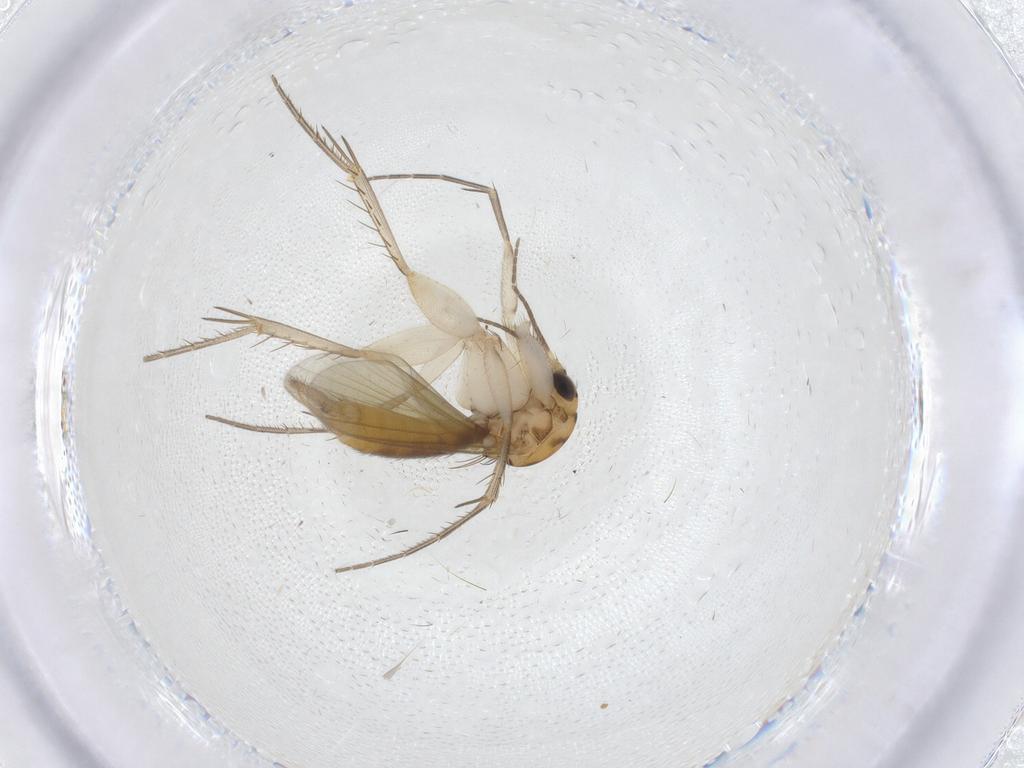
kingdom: Animalia
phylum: Arthropoda
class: Insecta
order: Diptera
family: Mycetophilidae
